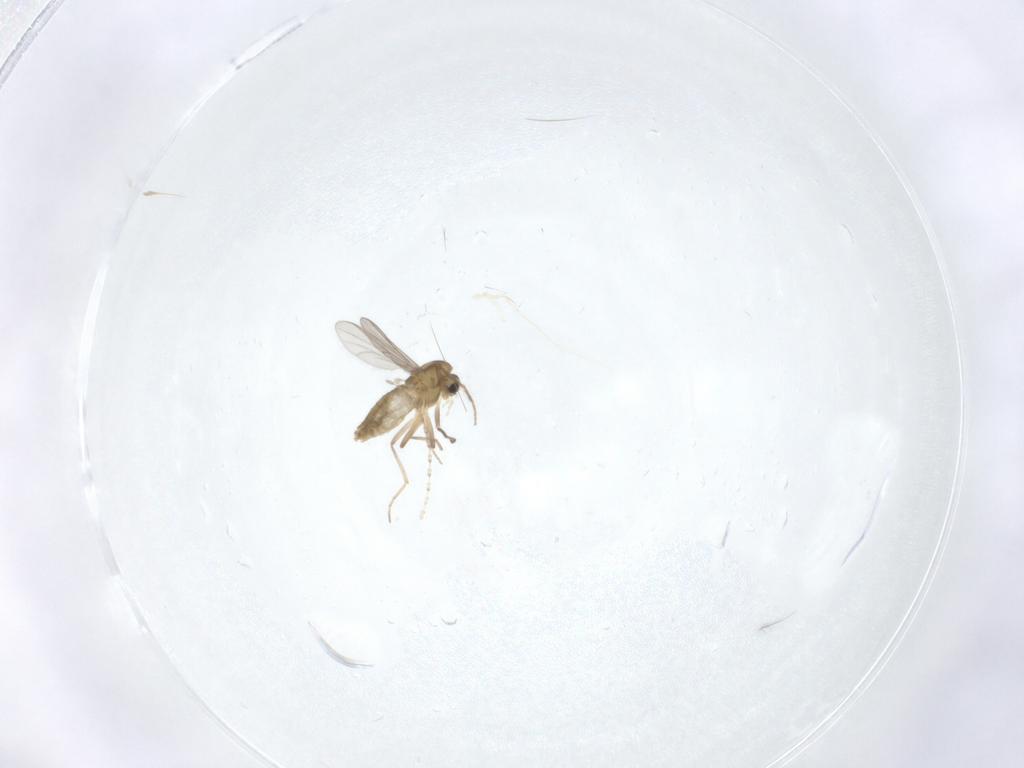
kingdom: Animalia
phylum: Arthropoda
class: Insecta
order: Diptera
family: Chironomidae
